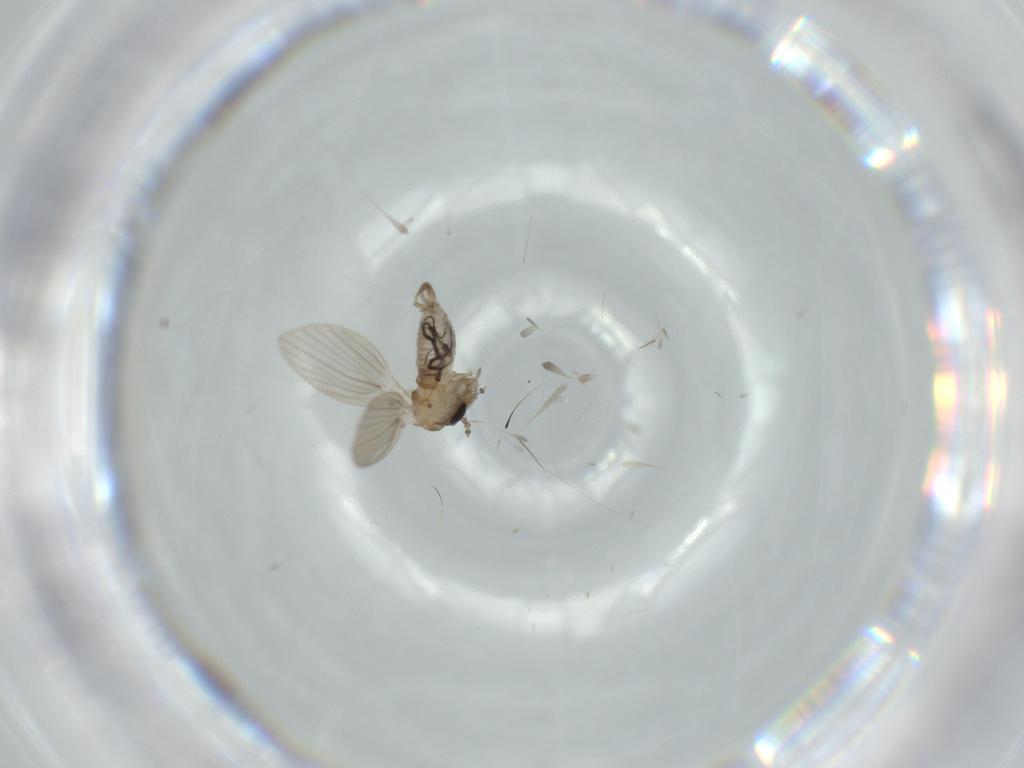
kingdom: Animalia
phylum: Arthropoda
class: Insecta
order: Diptera
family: Psychodidae
